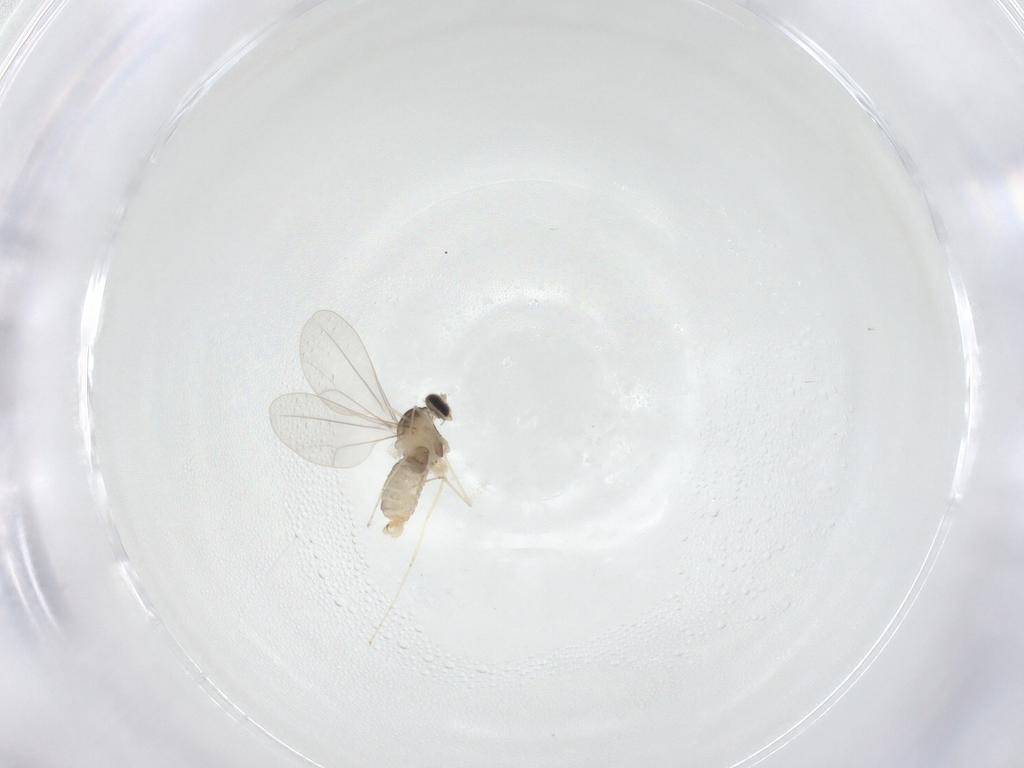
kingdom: Animalia
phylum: Arthropoda
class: Insecta
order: Diptera
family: Cecidomyiidae
